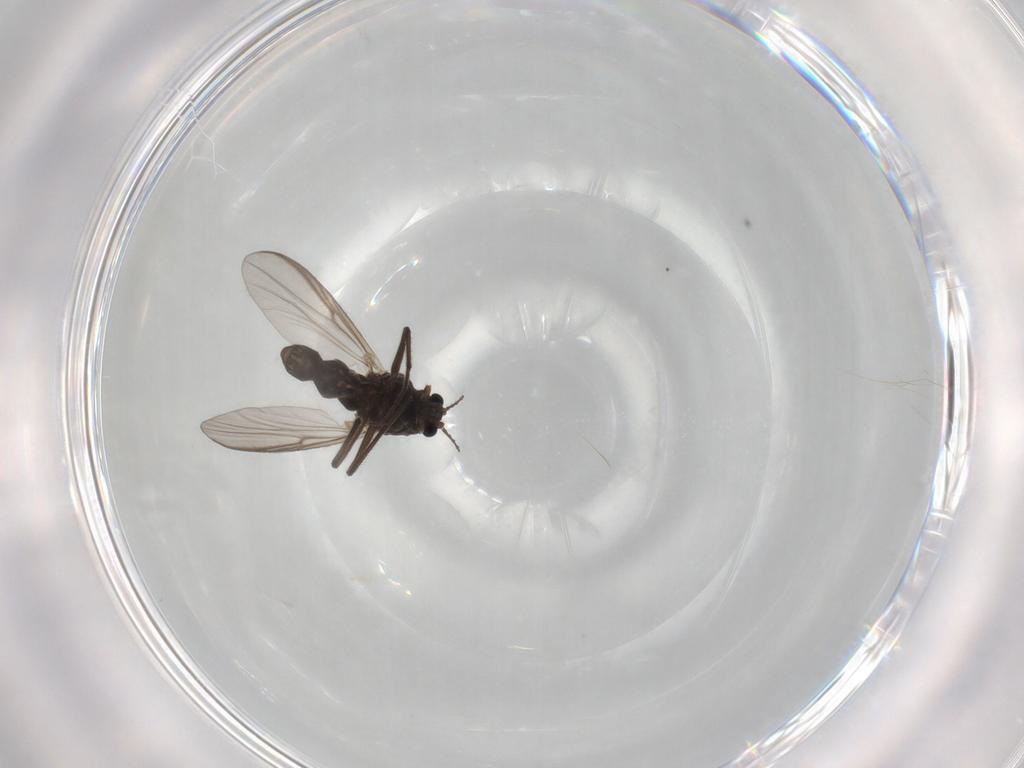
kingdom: Animalia
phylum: Arthropoda
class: Insecta
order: Diptera
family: Chironomidae
